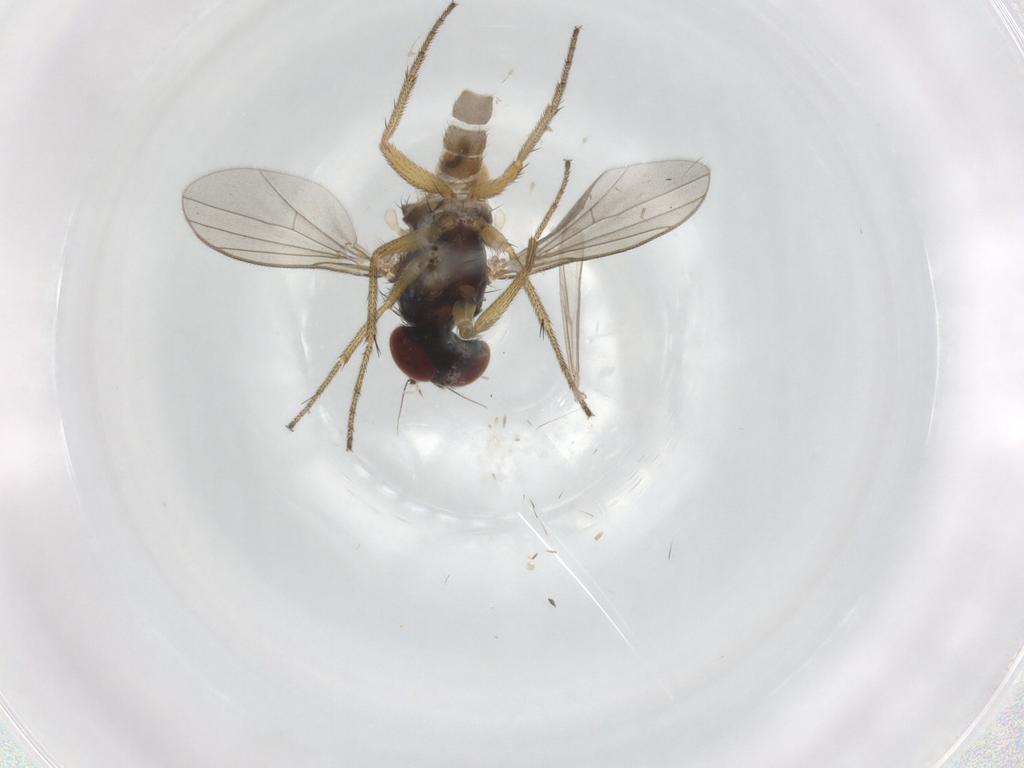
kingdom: Animalia
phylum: Arthropoda
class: Insecta
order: Diptera
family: Dolichopodidae
